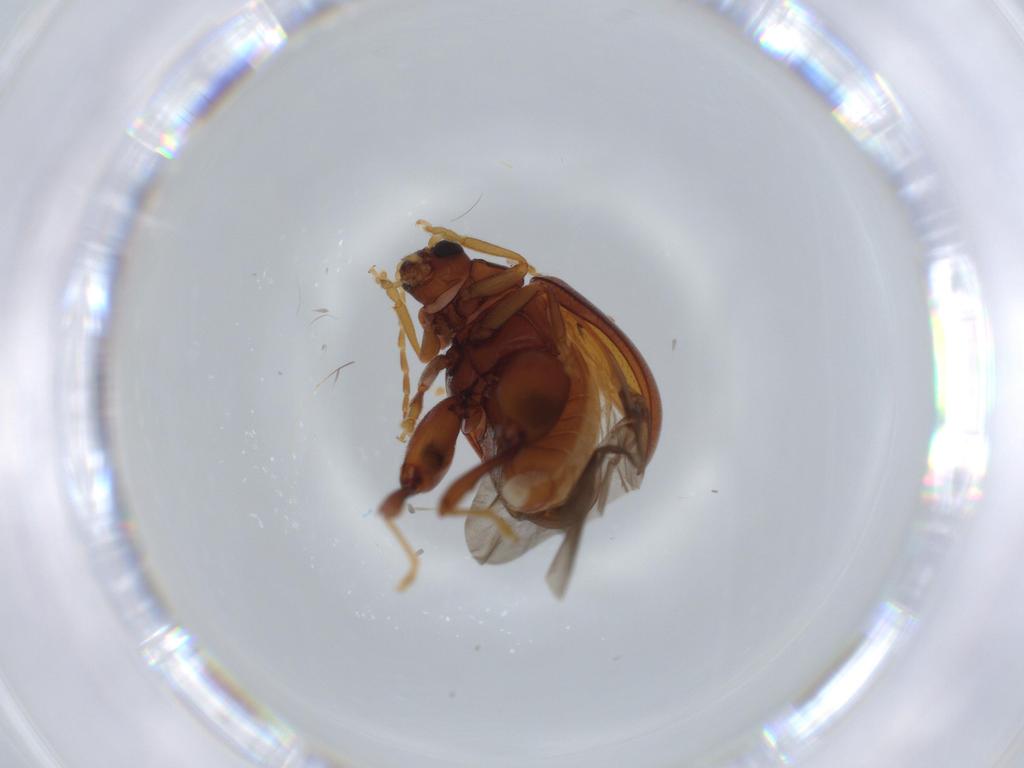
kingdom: Animalia
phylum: Arthropoda
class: Insecta
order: Coleoptera
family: Chrysomelidae
